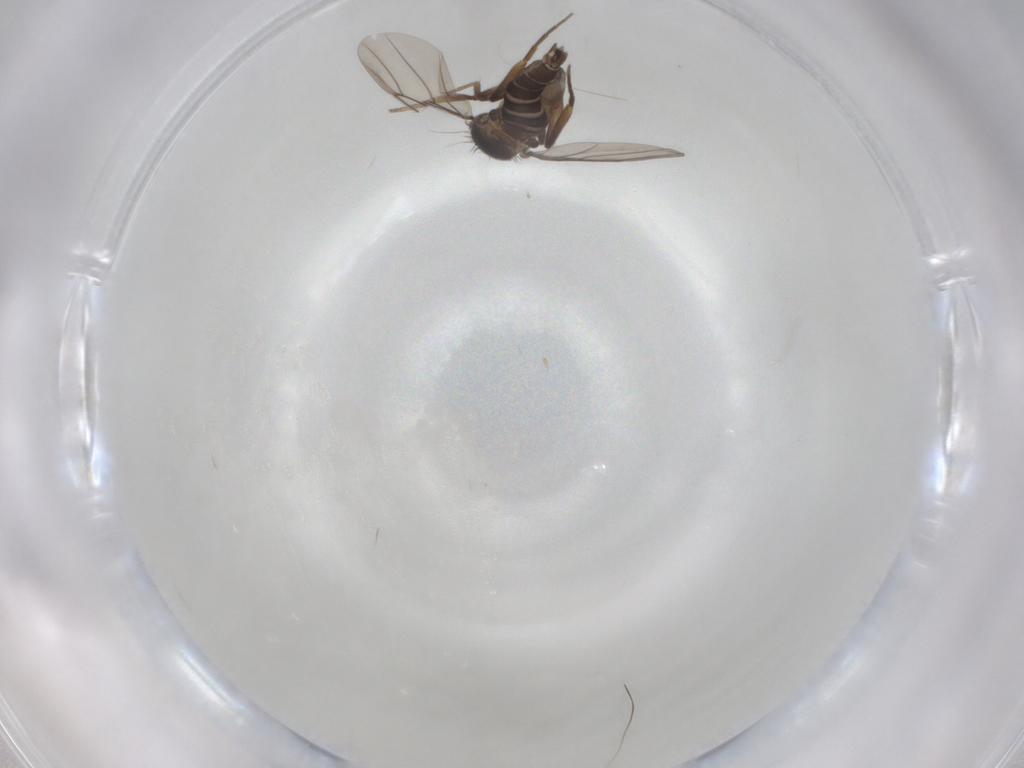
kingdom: Animalia
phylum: Arthropoda
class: Insecta
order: Diptera
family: Phoridae
